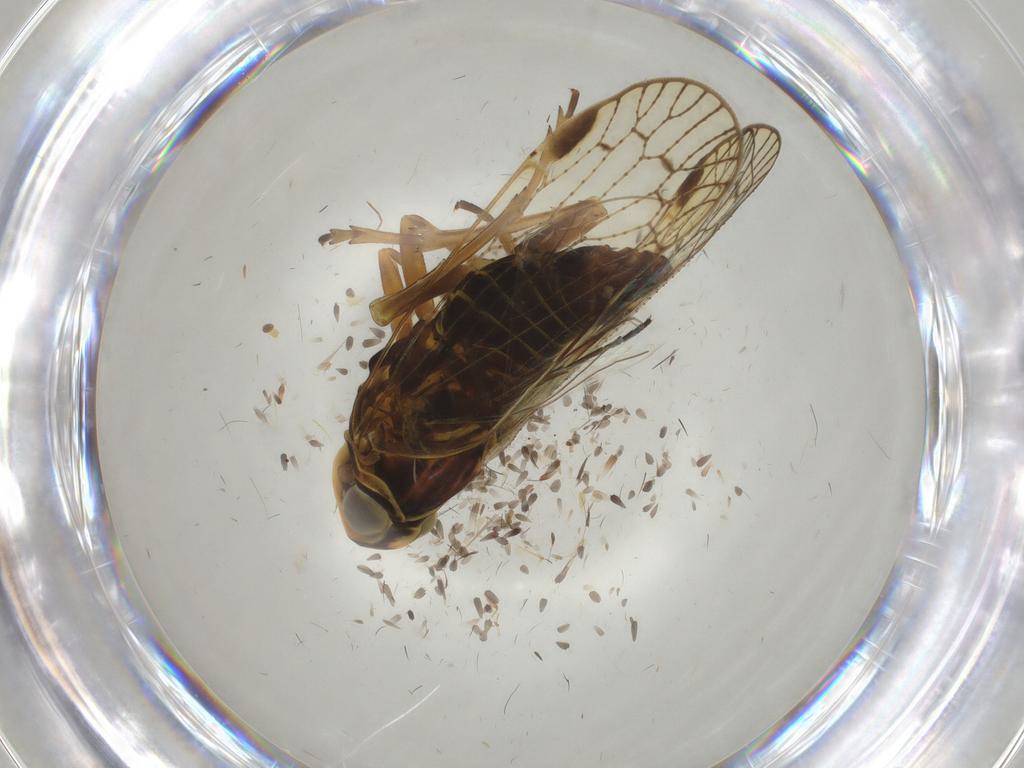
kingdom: Animalia
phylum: Arthropoda
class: Insecta
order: Hemiptera
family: Cixiidae
